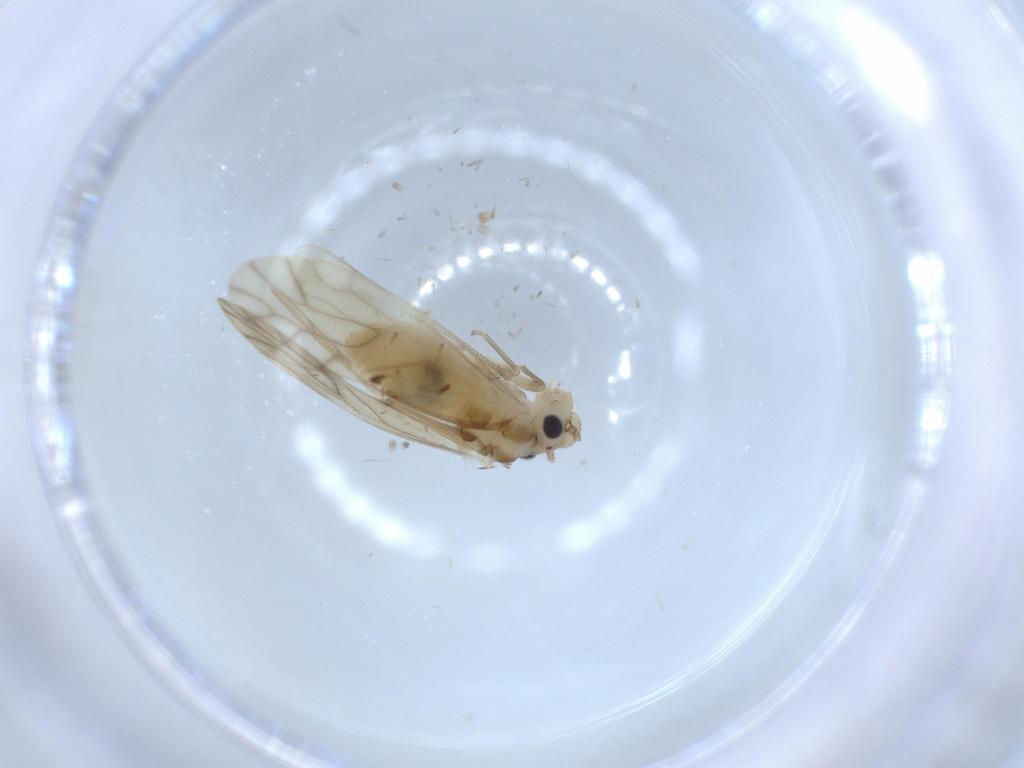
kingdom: Animalia
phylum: Arthropoda
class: Insecta
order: Psocodea
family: Caeciliusidae
